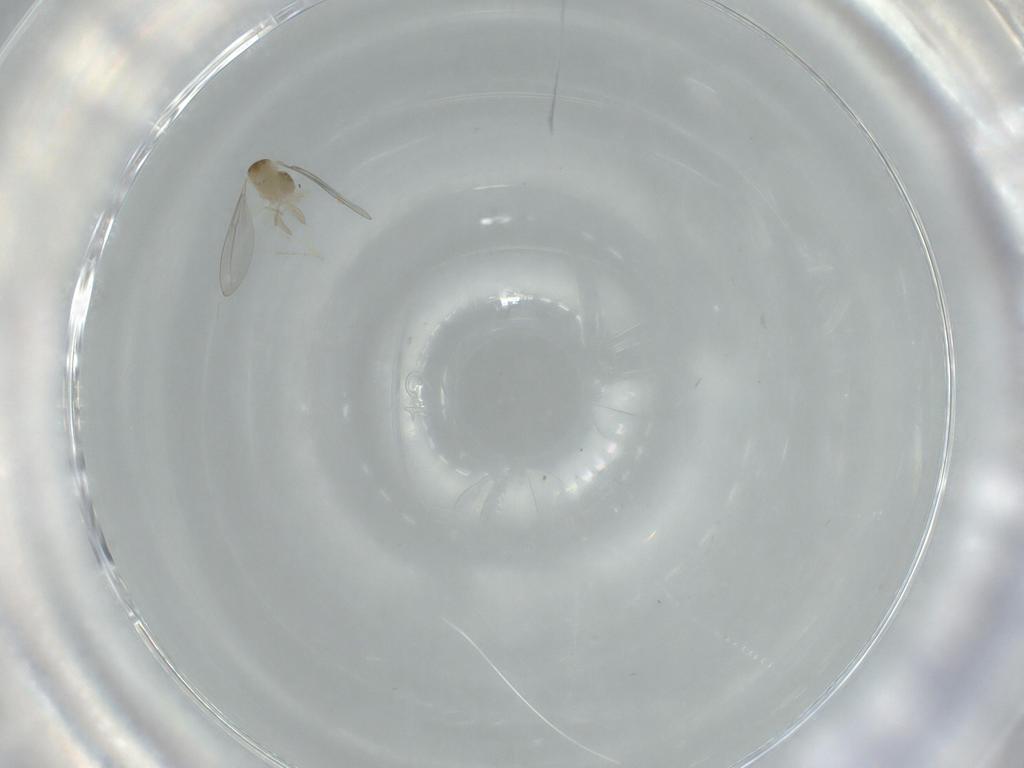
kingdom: Animalia
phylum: Arthropoda
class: Insecta
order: Diptera
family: Cecidomyiidae
